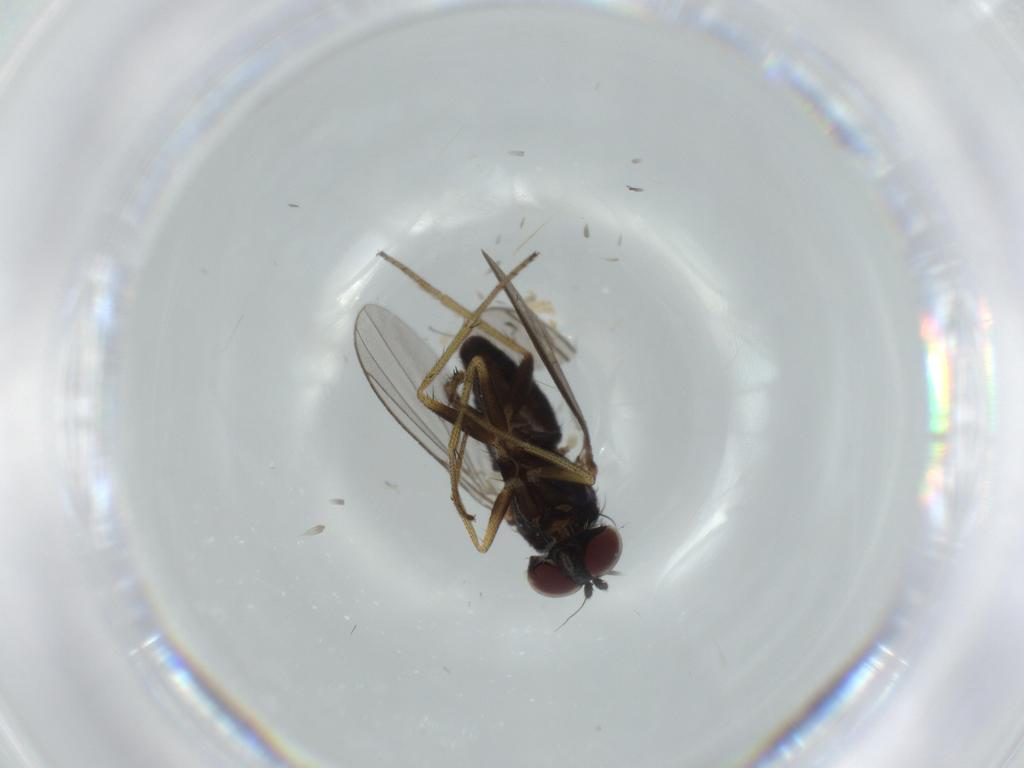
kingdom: Animalia
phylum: Arthropoda
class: Insecta
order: Diptera
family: Chironomidae
